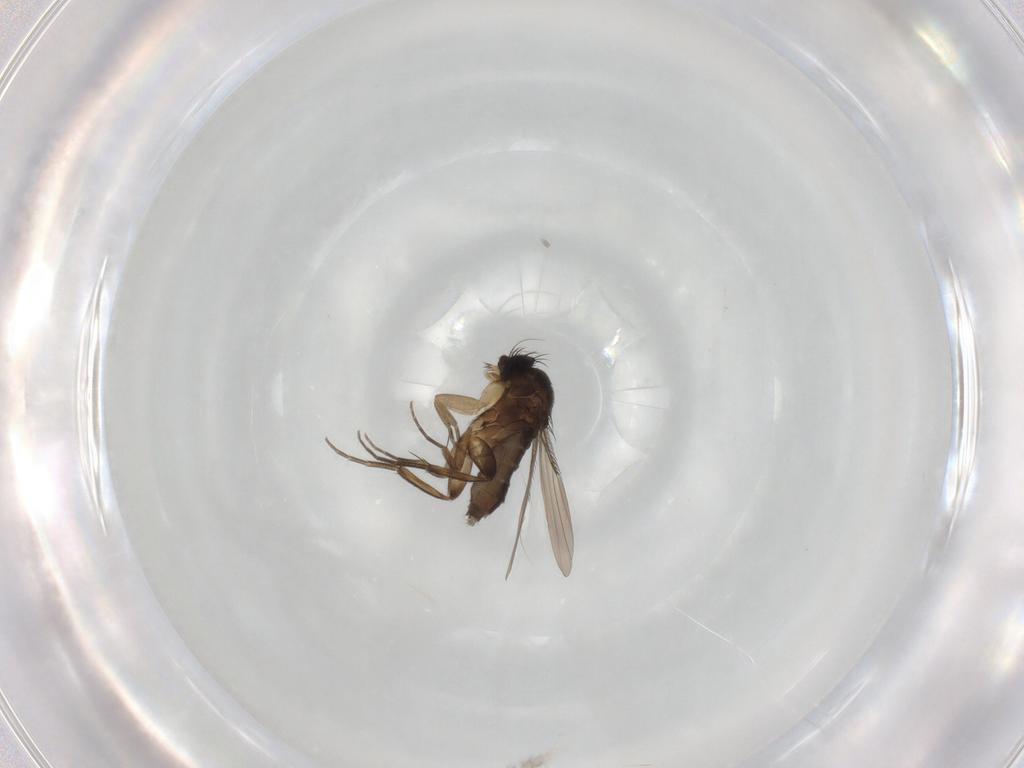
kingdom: Animalia
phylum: Arthropoda
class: Insecta
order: Diptera
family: Phoridae
